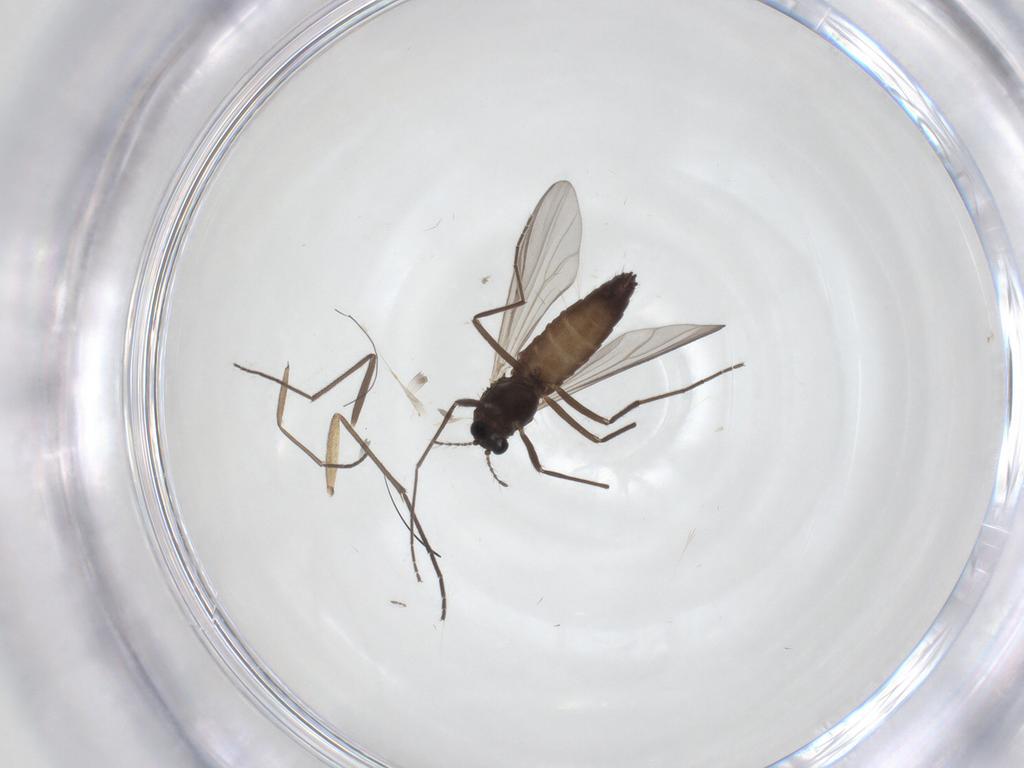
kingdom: Animalia
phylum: Arthropoda
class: Insecta
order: Diptera
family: Chironomidae
